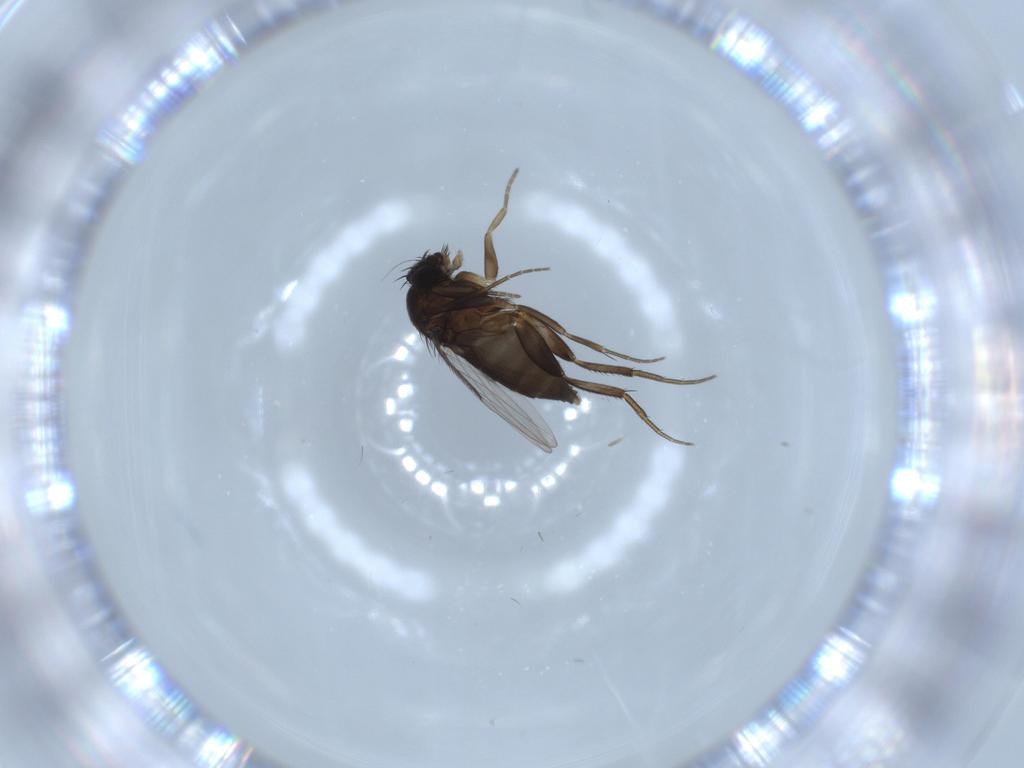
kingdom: Animalia
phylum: Arthropoda
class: Insecta
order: Diptera
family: Phoridae
